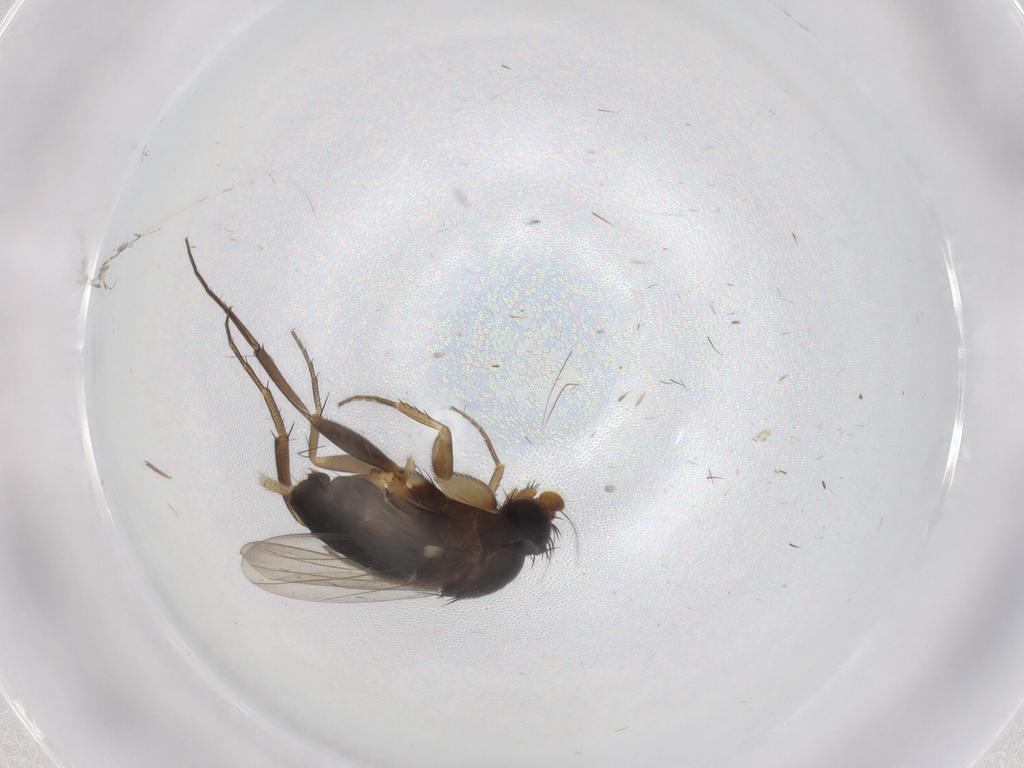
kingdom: Animalia
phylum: Arthropoda
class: Insecta
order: Diptera
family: Phoridae
